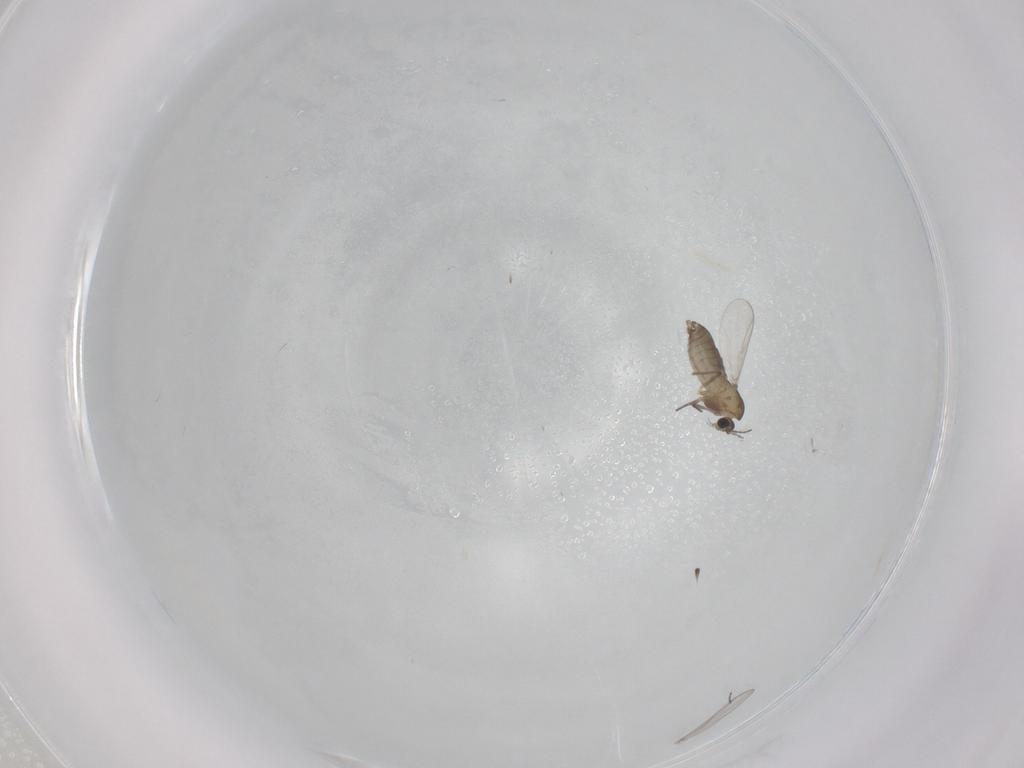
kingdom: Animalia
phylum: Arthropoda
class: Insecta
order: Diptera
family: Chironomidae
